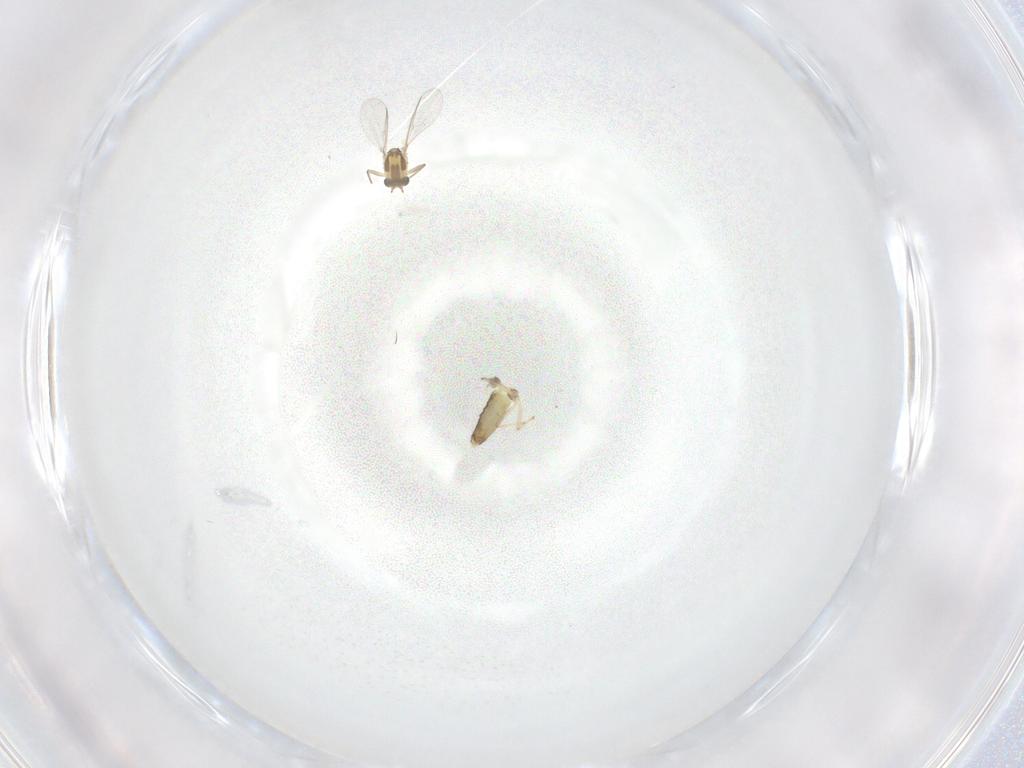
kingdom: Animalia
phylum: Arthropoda
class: Insecta
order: Diptera
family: Chironomidae
